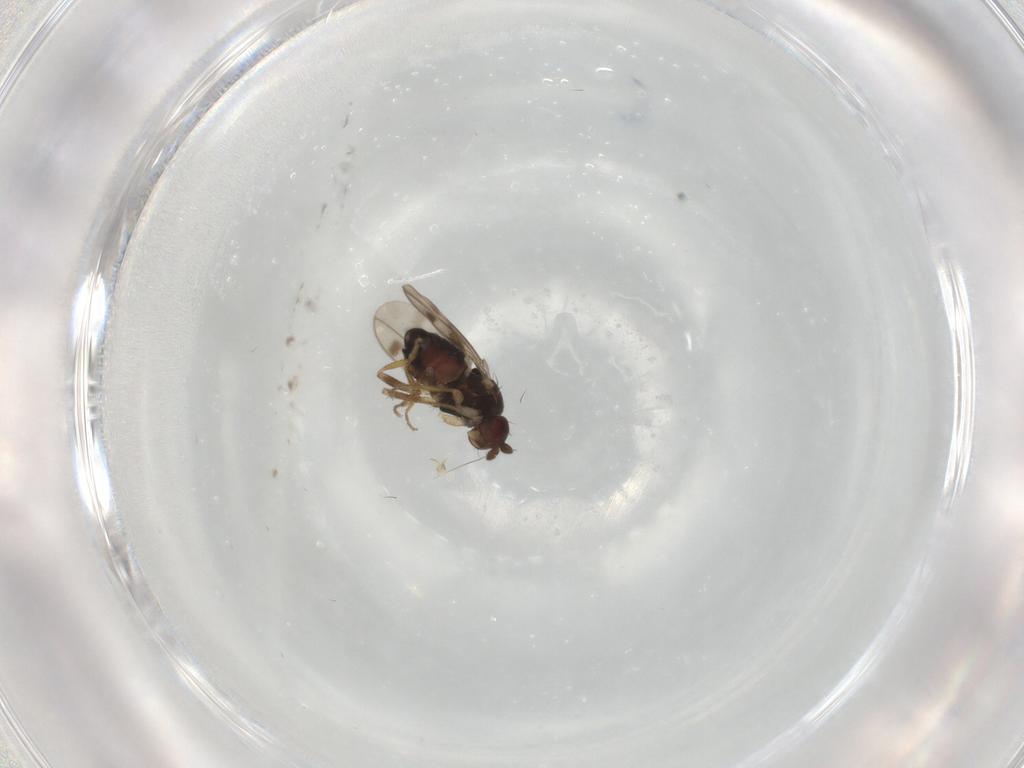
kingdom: Animalia
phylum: Arthropoda
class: Insecta
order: Diptera
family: Sphaeroceridae
